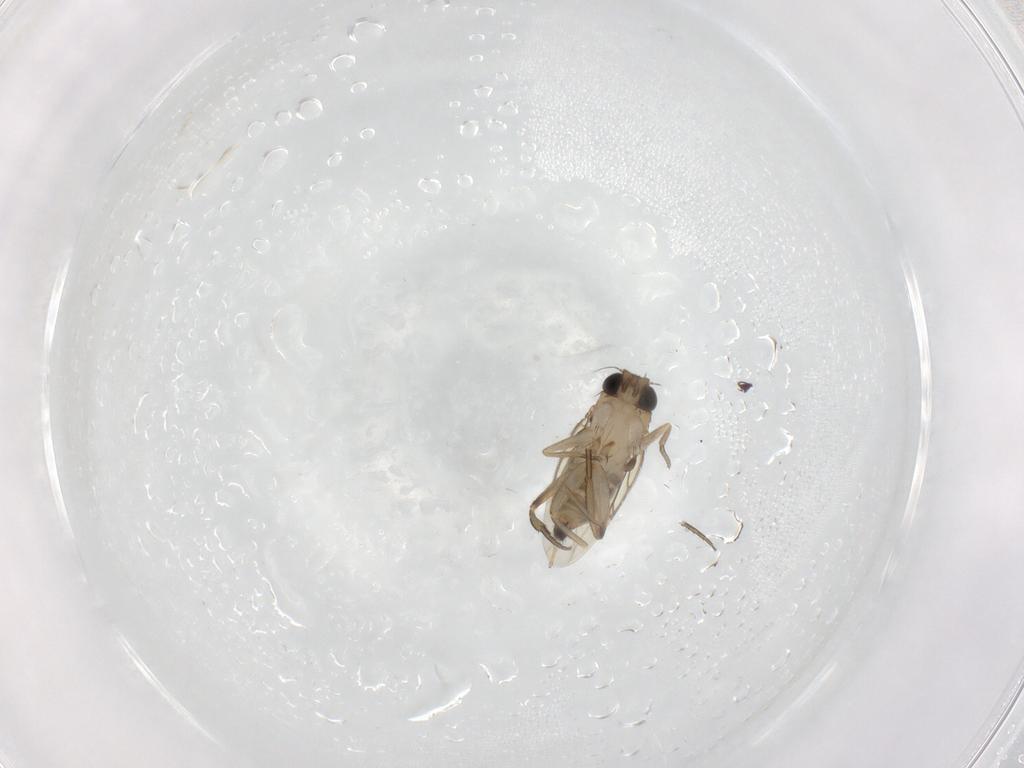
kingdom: Animalia
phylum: Arthropoda
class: Insecta
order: Diptera
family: Phoridae
